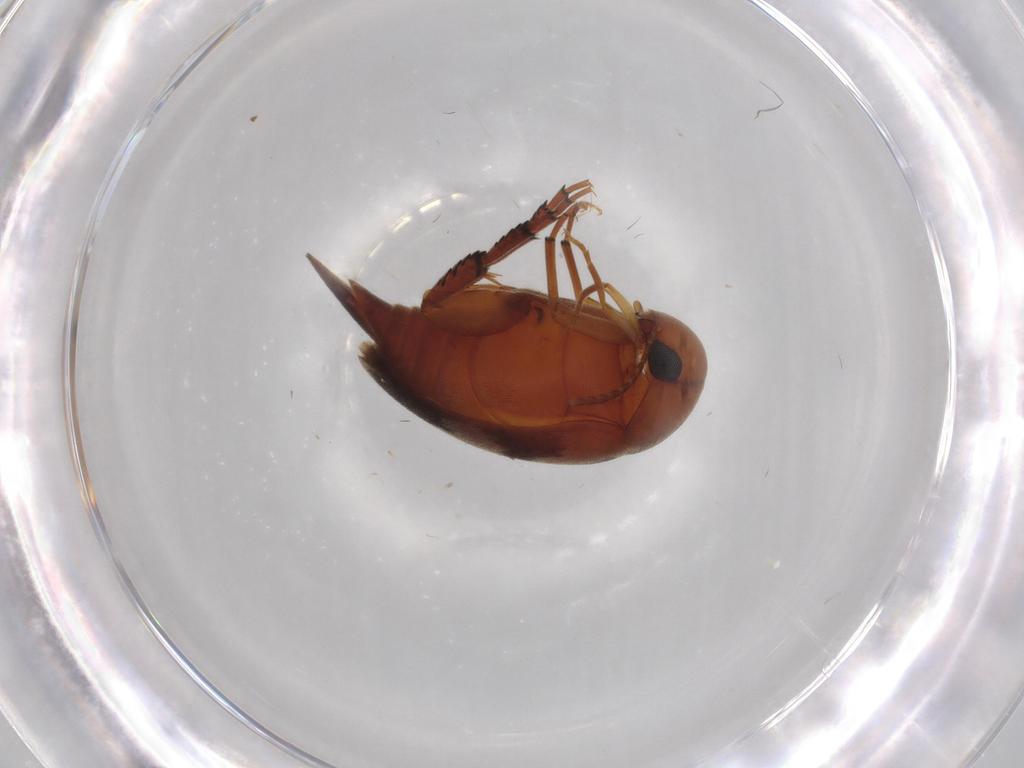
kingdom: Animalia
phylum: Arthropoda
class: Insecta
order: Coleoptera
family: Mordellidae
